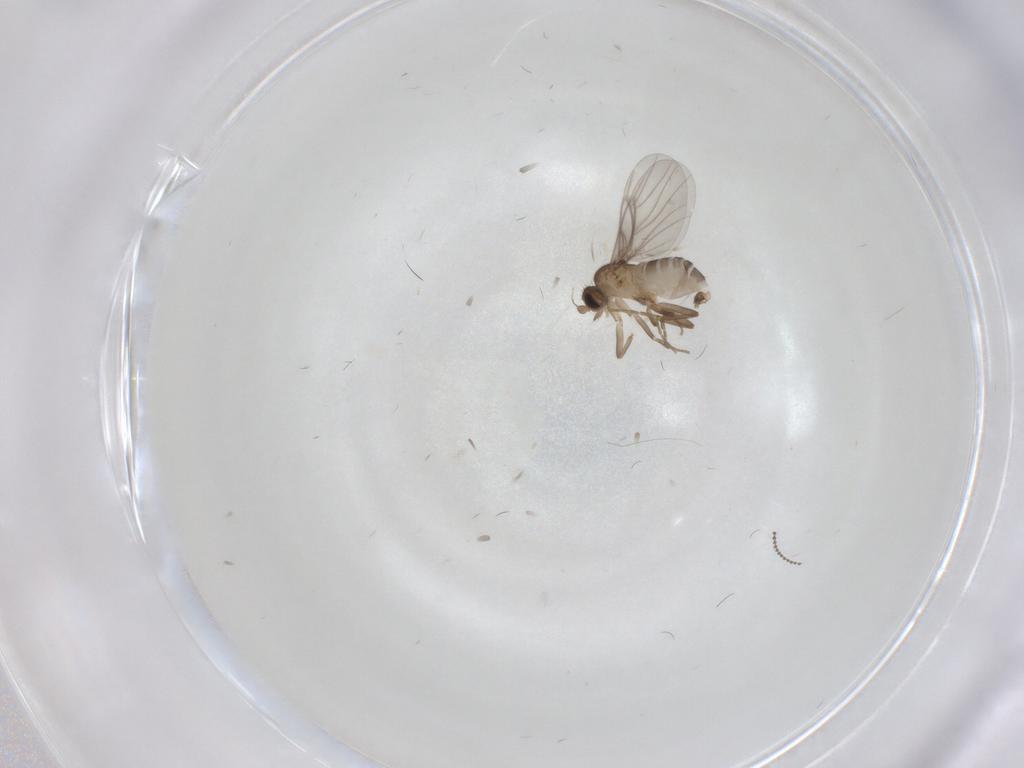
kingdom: Animalia
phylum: Arthropoda
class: Insecta
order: Diptera
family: Cecidomyiidae
